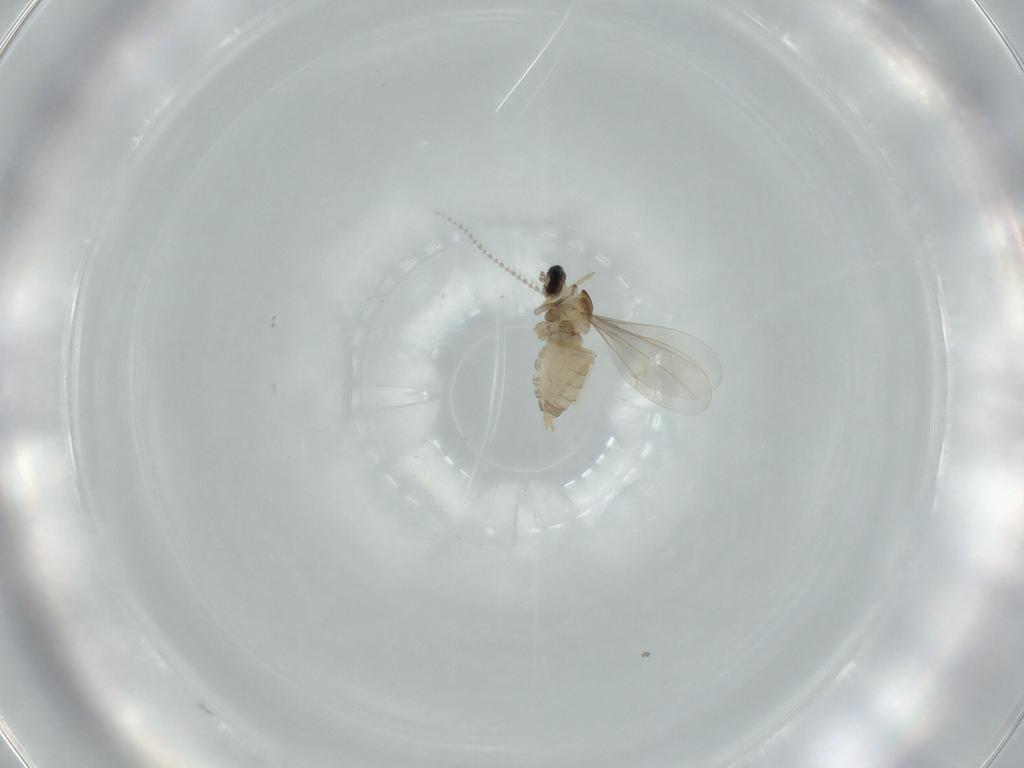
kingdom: Animalia
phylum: Arthropoda
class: Insecta
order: Diptera
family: Cecidomyiidae
